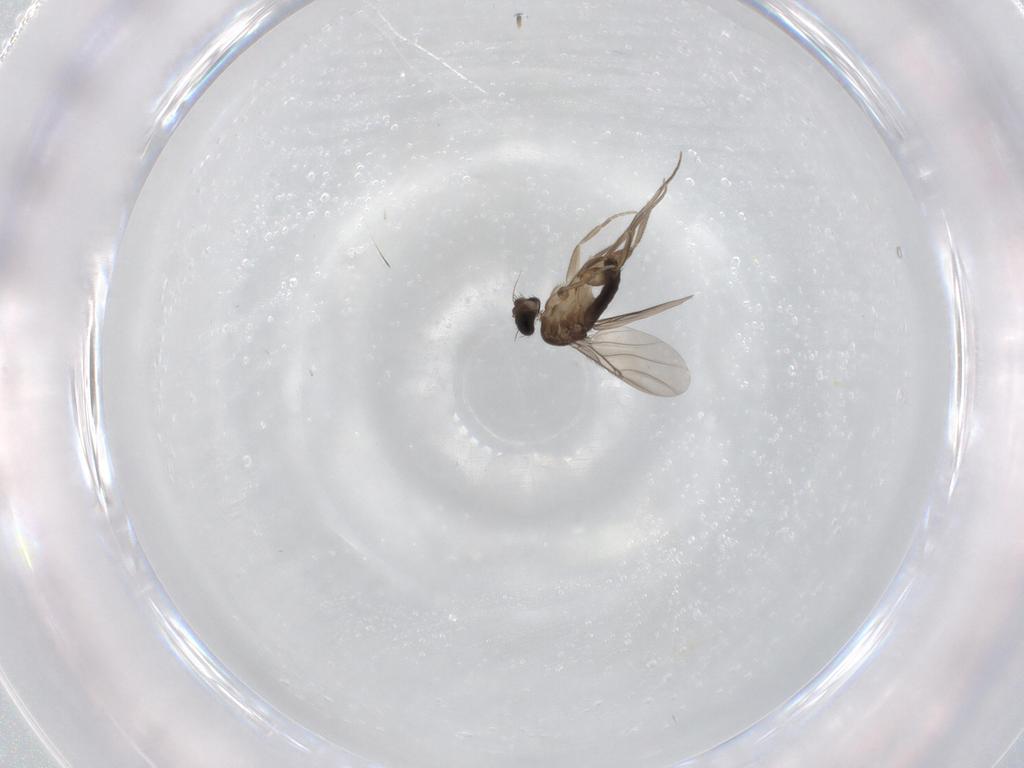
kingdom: Animalia
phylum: Arthropoda
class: Insecta
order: Diptera
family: Phoridae
